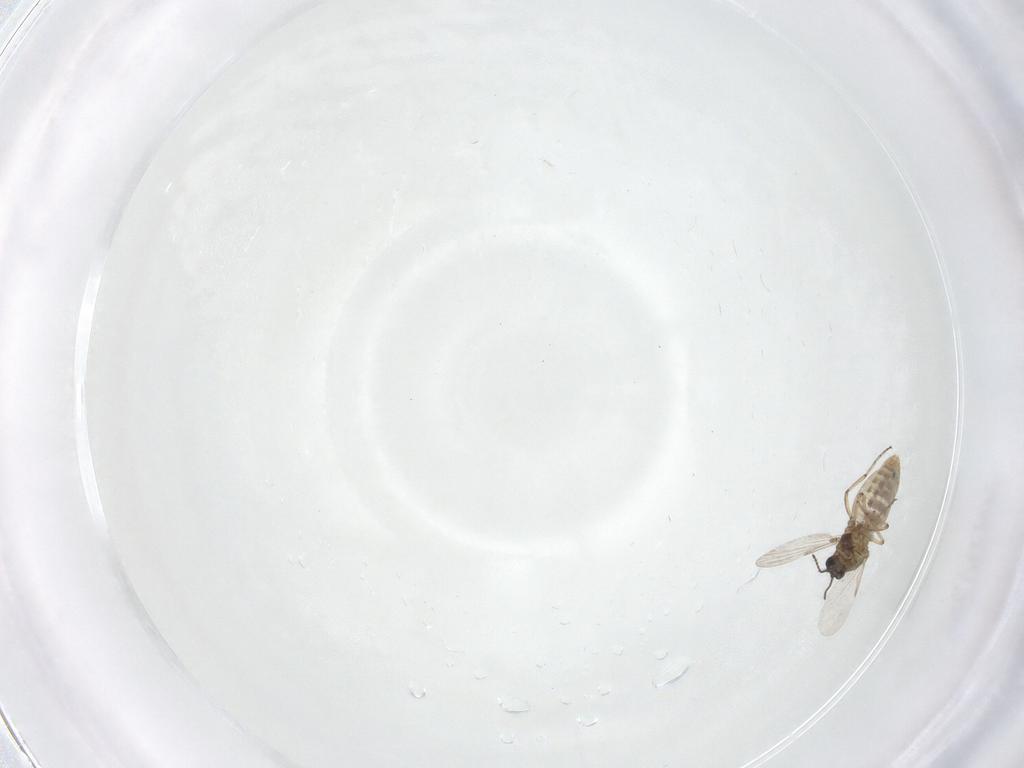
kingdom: Animalia
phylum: Arthropoda
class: Insecta
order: Diptera
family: Ceratopogonidae
